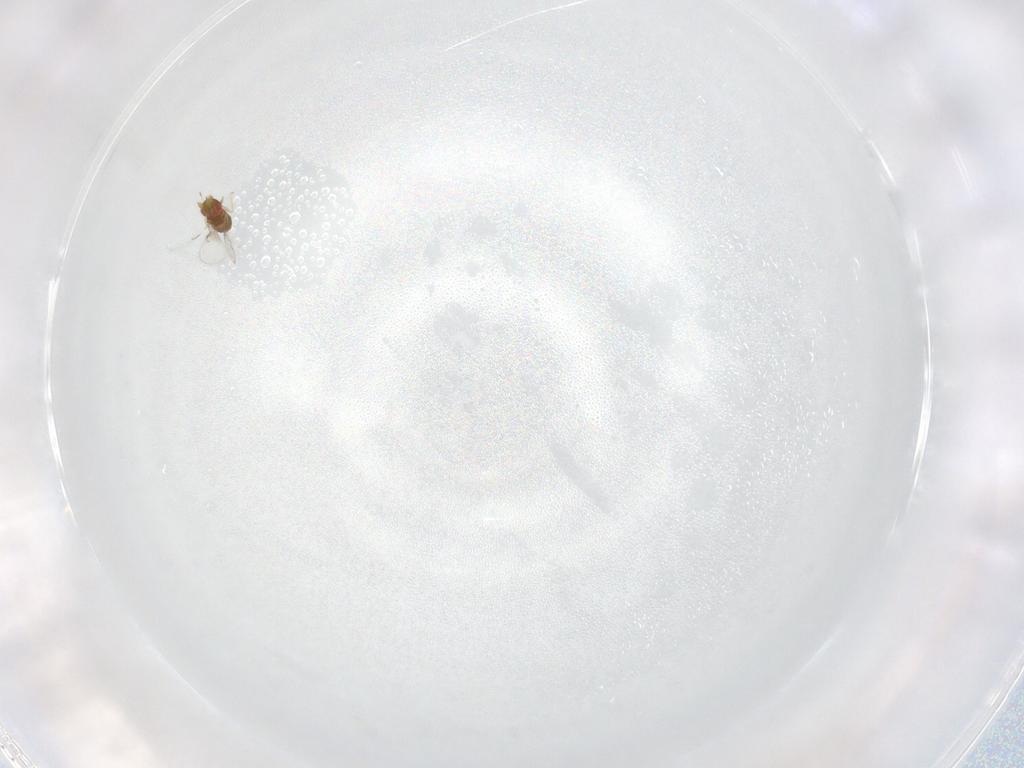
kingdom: Animalia
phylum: Arthropoda
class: Insecta
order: Hymenoptera
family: Trichogrammatidae
